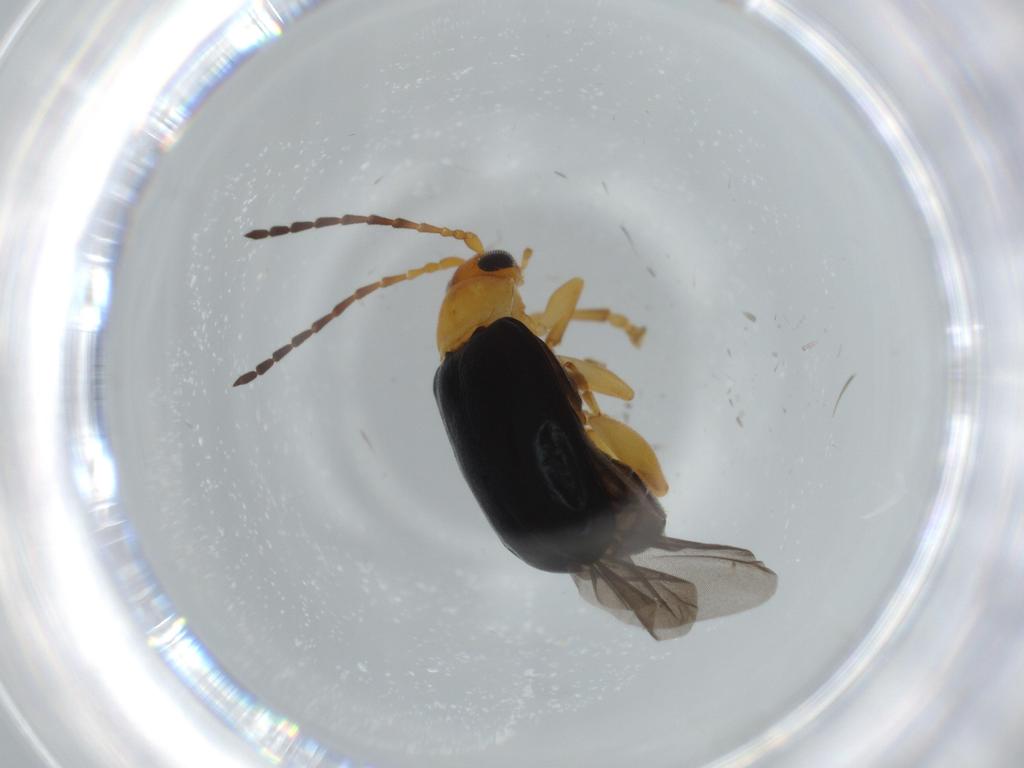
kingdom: Animalia
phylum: Arthropoda
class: Insecta
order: Coleoptera
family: Chrysomelidae
